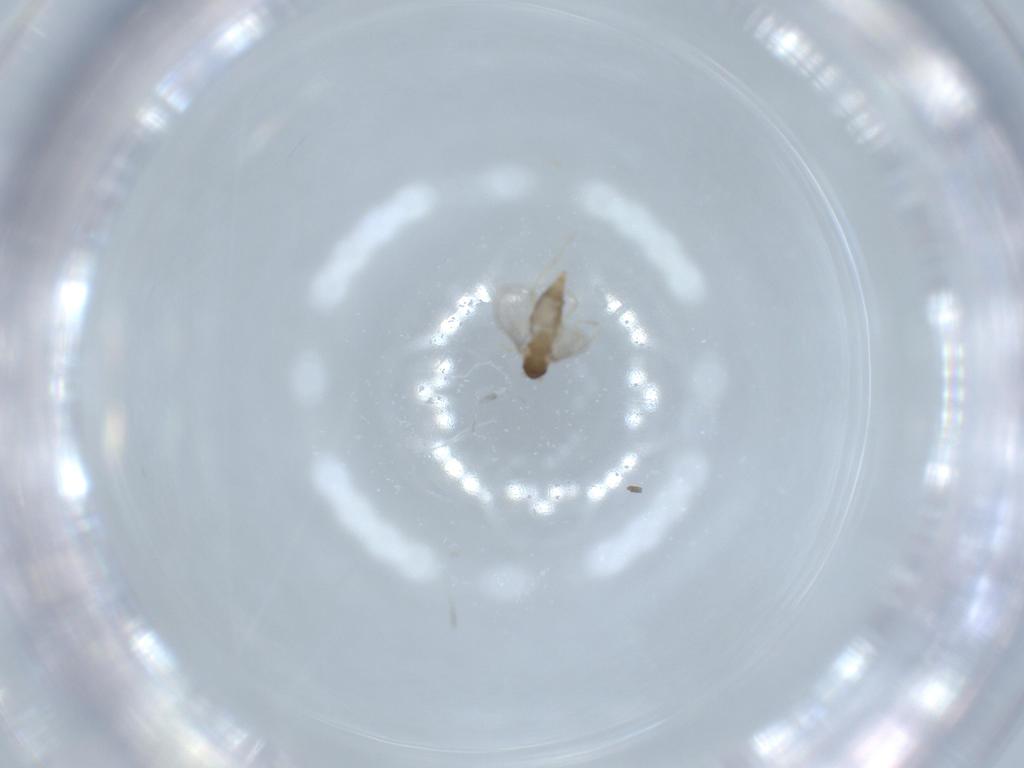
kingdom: Animalia
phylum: Arthropoda
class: Insecta
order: Diptera
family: Cecidomyiidae
